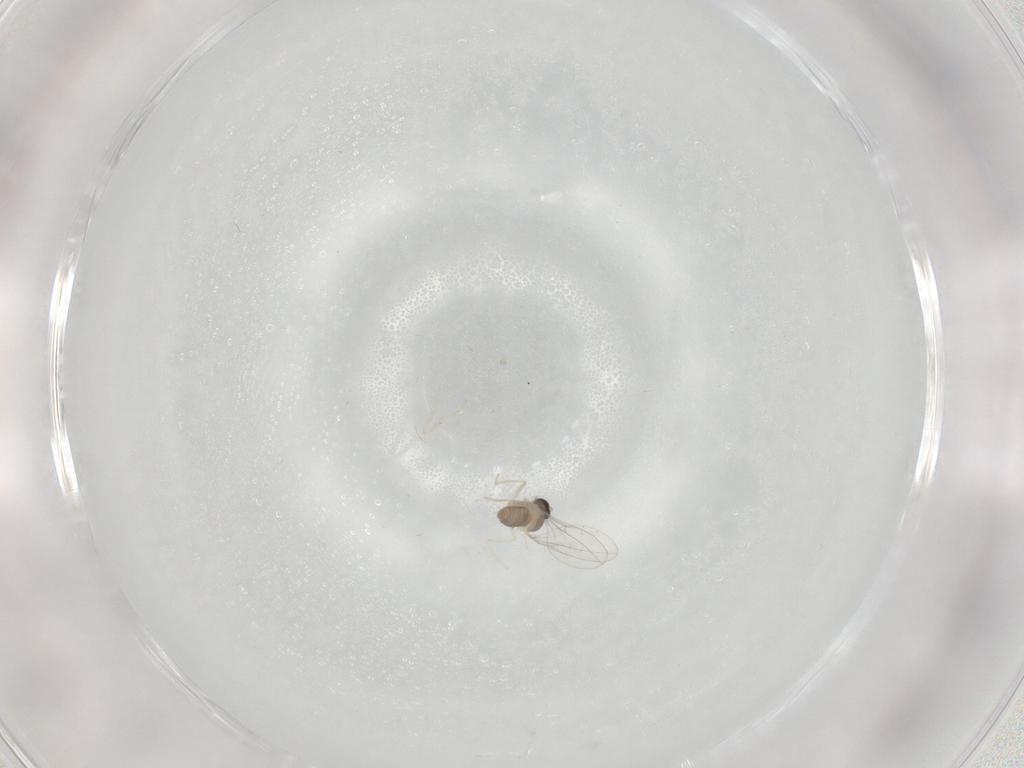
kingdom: Animalia
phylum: Arthropoda
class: Insecta
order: Diptera
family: Cecidomyiidae
